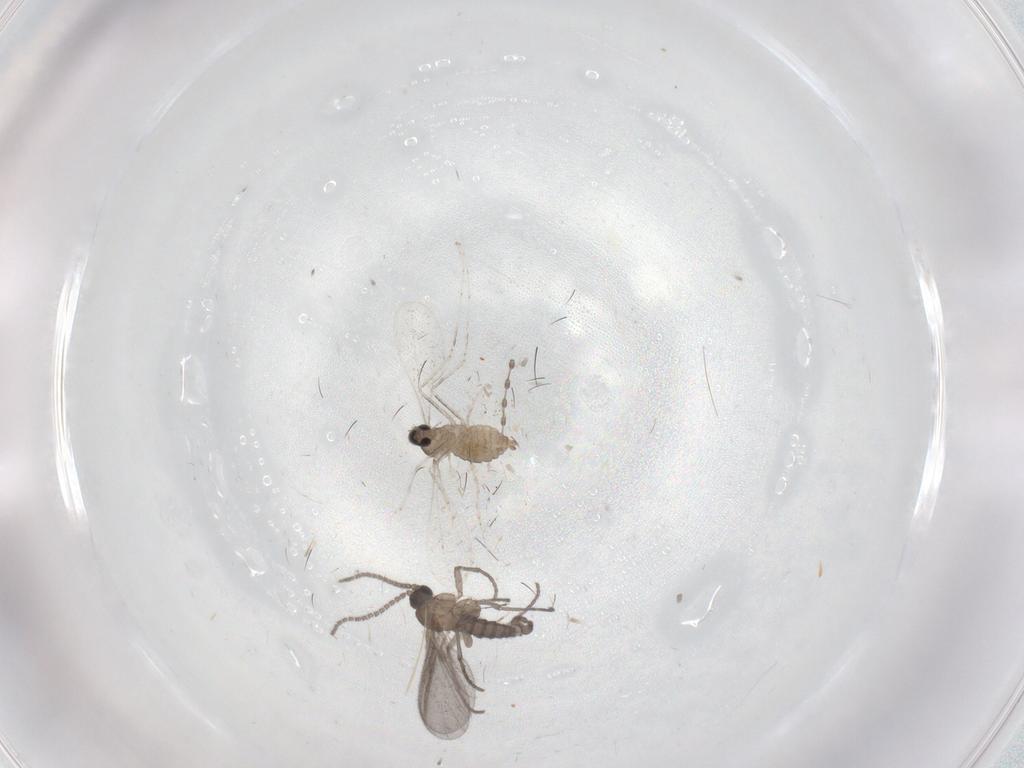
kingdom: Animalia
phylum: Arthropoda
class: Insecta
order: Diptera
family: Sciaridae
